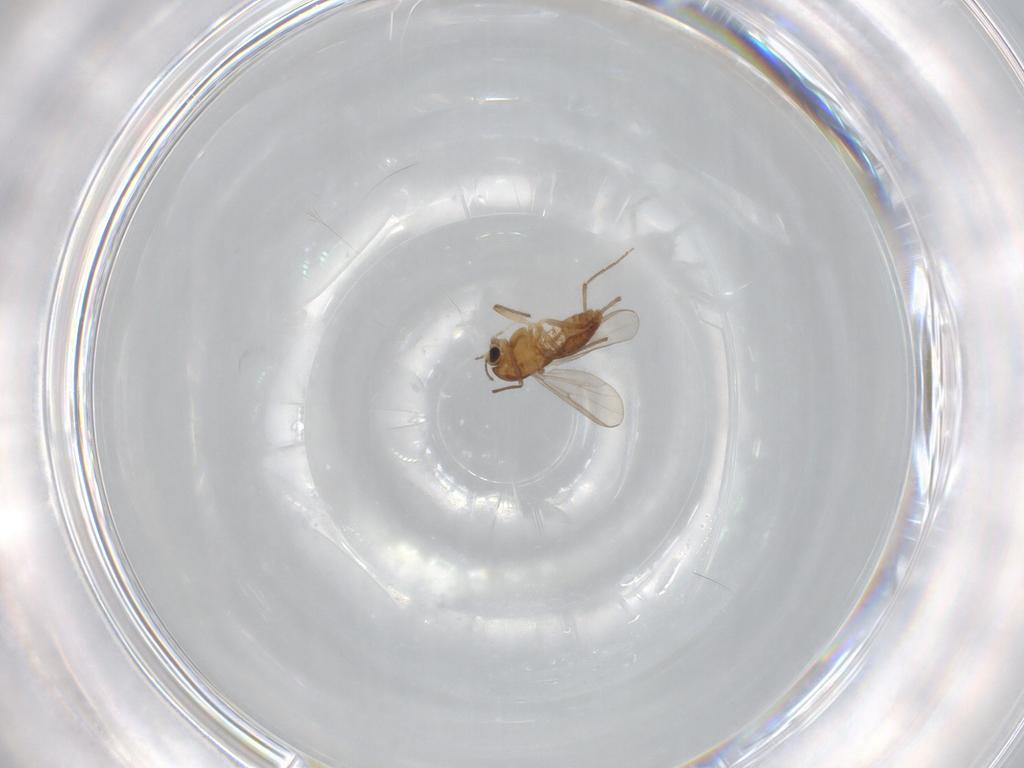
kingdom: Animalia
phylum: Arthropoda
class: Insecta
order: Diptera
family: Chironomidae
